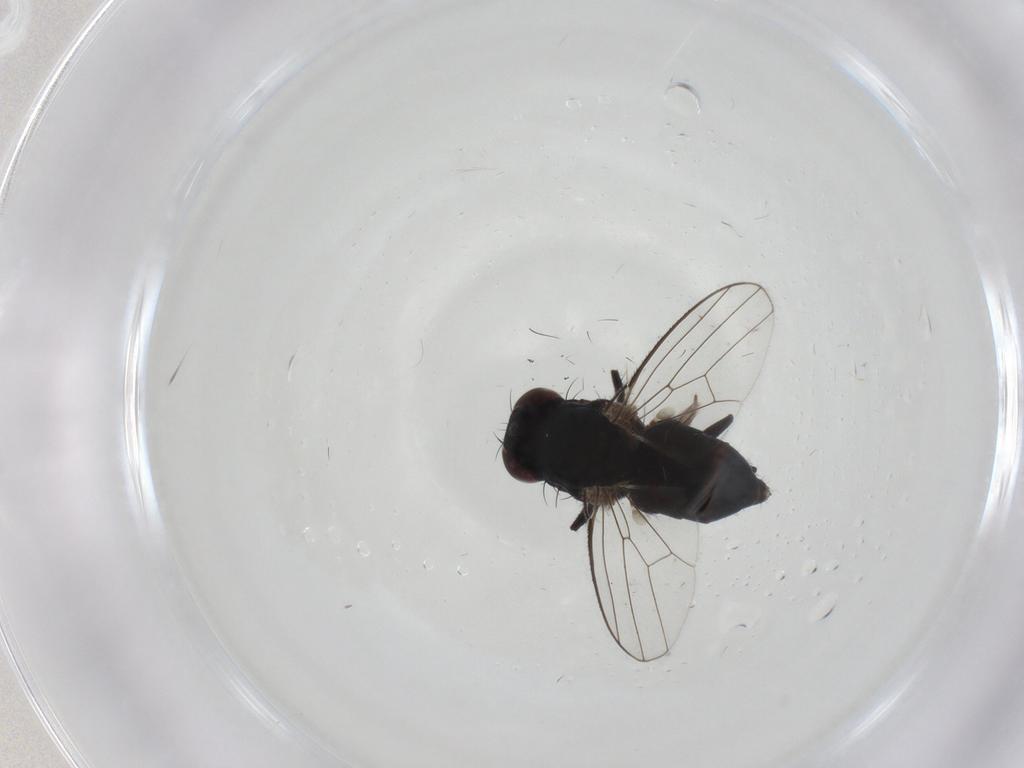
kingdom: Animalia
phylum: Arthropoda
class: Insecta
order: Diptera
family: Carnidae
